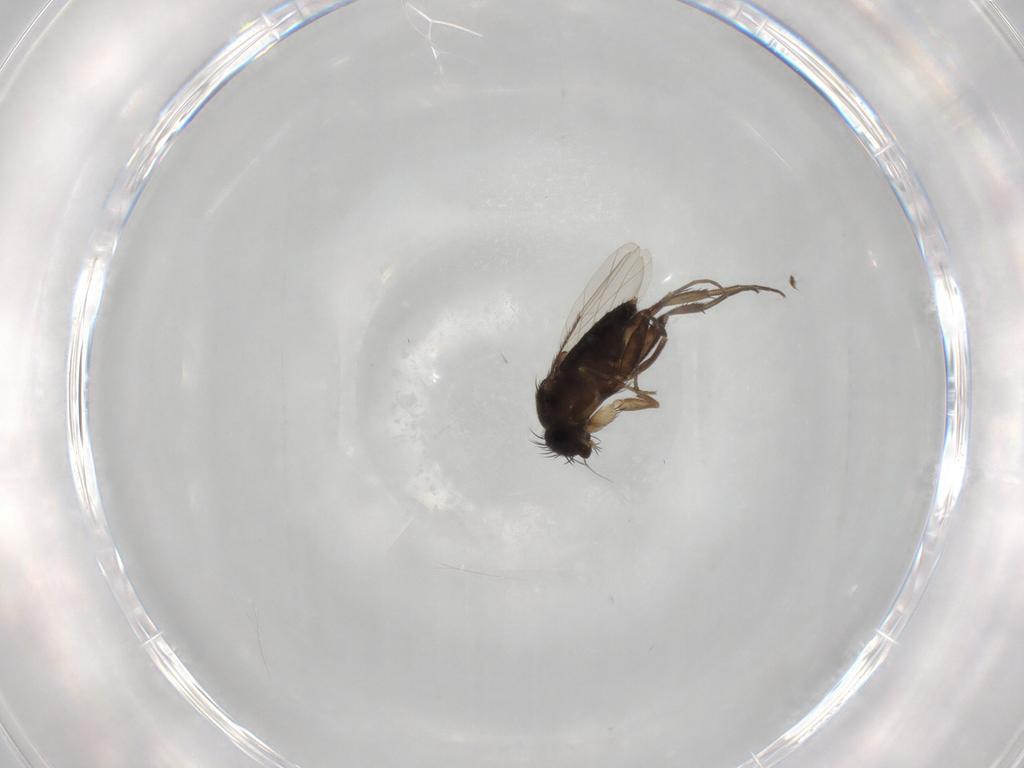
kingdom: Animalia
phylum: Arthropoda
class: Insecta
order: Diptera
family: Phoridae
